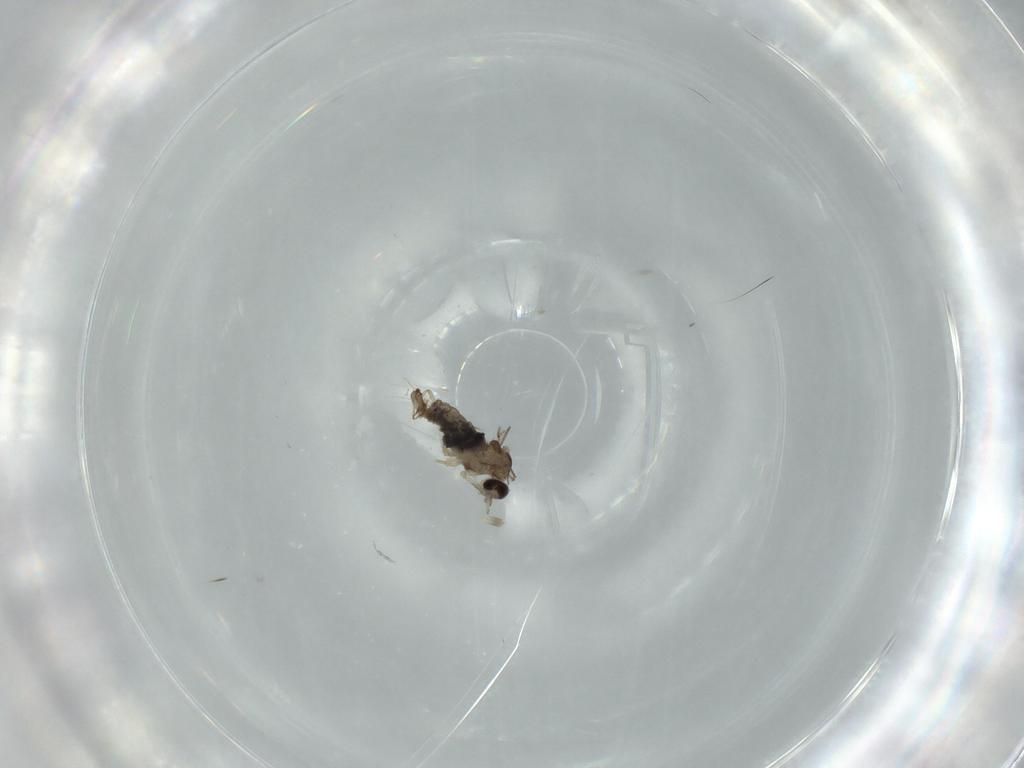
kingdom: Animalia
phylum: Arthropoda
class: Insecta
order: Diptera
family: Cecidomyiidae
